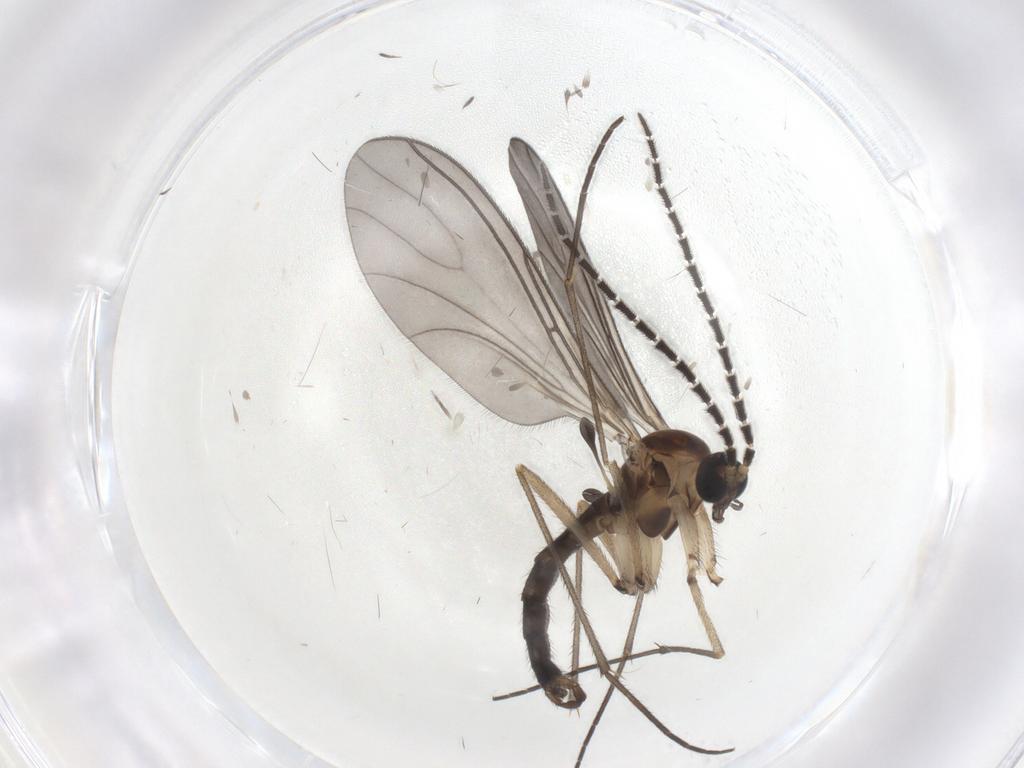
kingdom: Animalia
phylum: Arthropoda
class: Insecta
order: Diptera
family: Sciaridae
